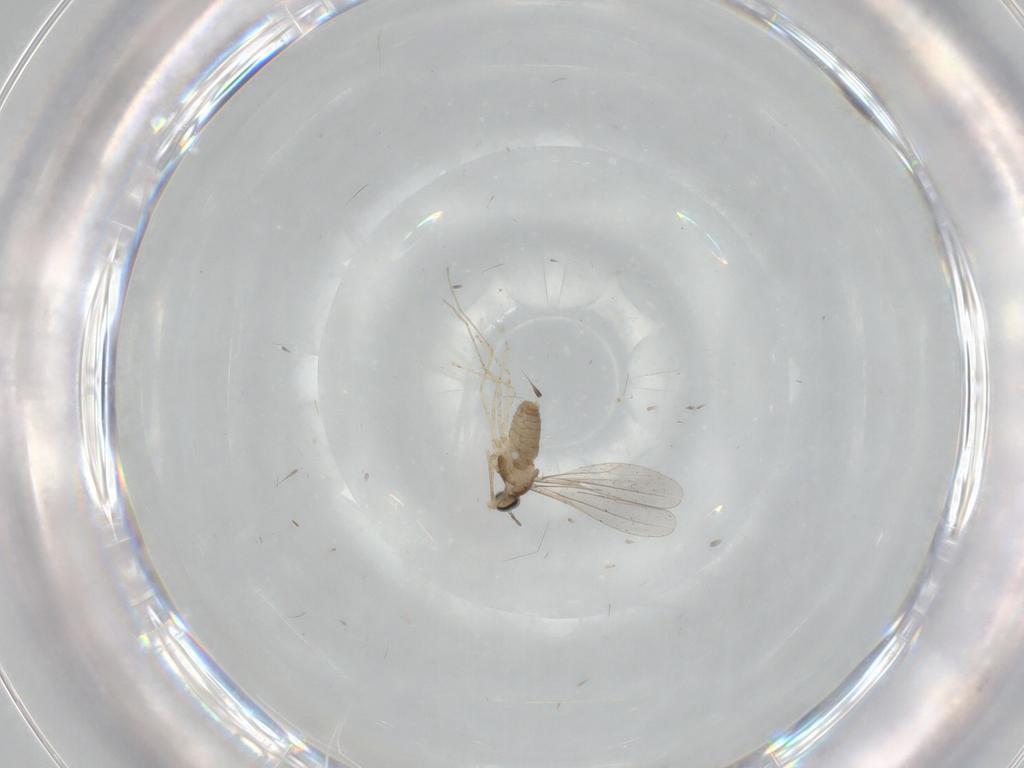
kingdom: Animalia
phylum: Arthropoda
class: Insecta
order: Diptera
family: Cecidomyiidae
